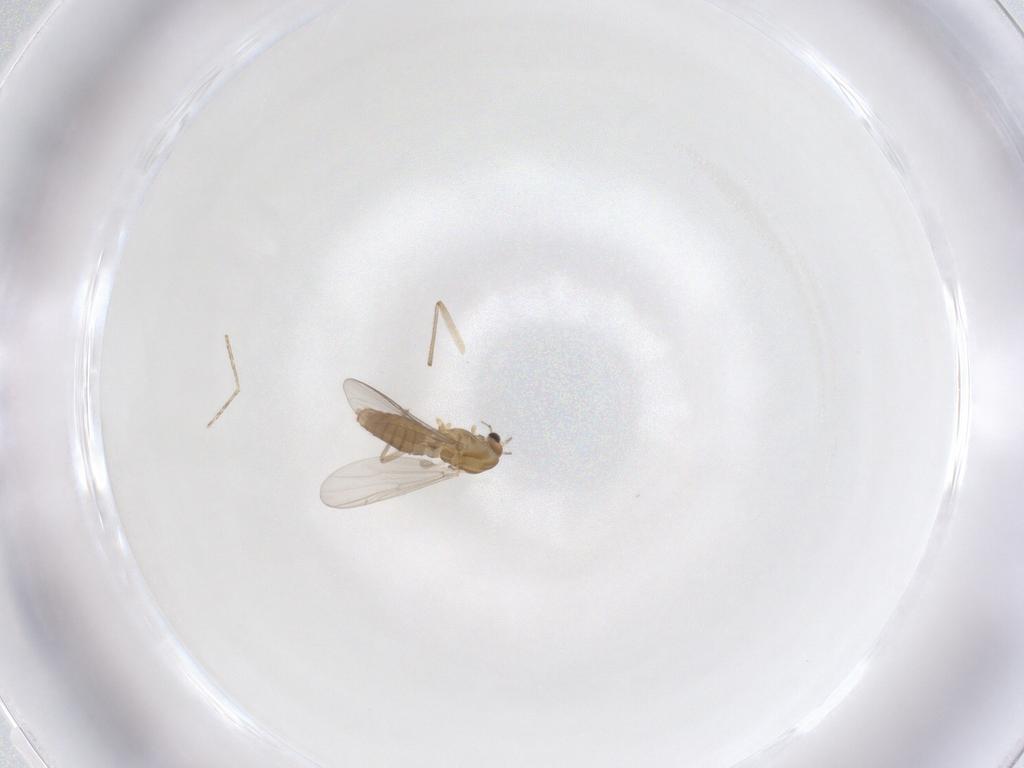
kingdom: Animalia
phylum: Arthropoda
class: Insecta
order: Diptera
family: Chironomidae
